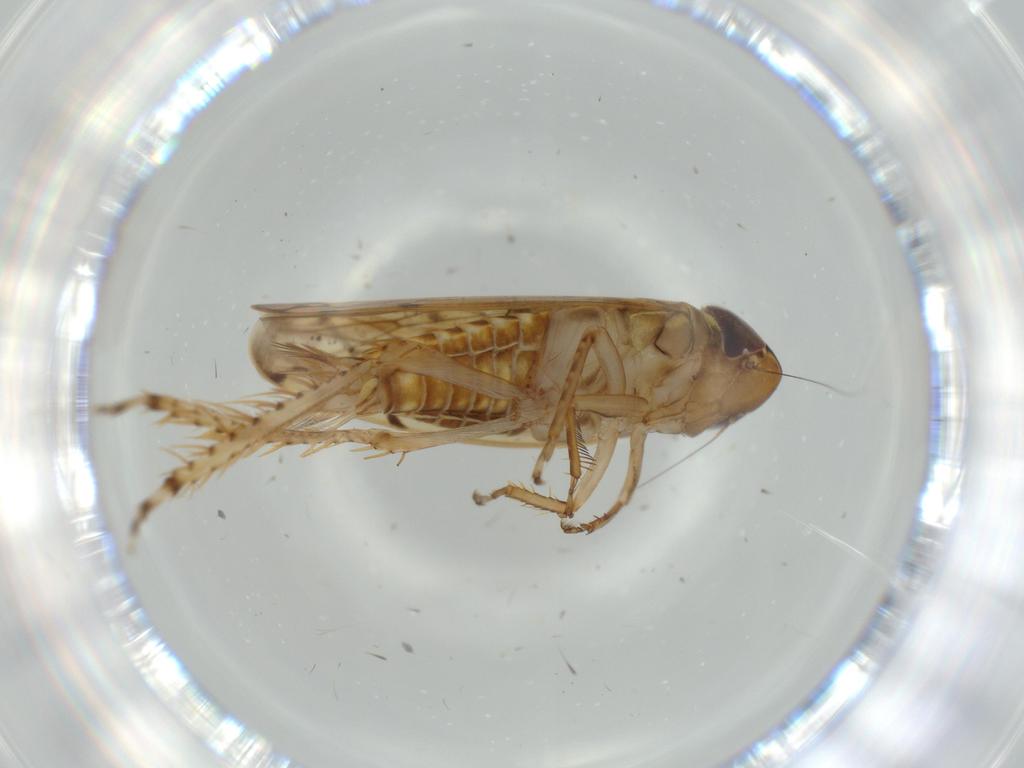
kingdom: Animalia
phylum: Arthropoda
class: Insecta
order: Hemiptera
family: Cicadellidae
